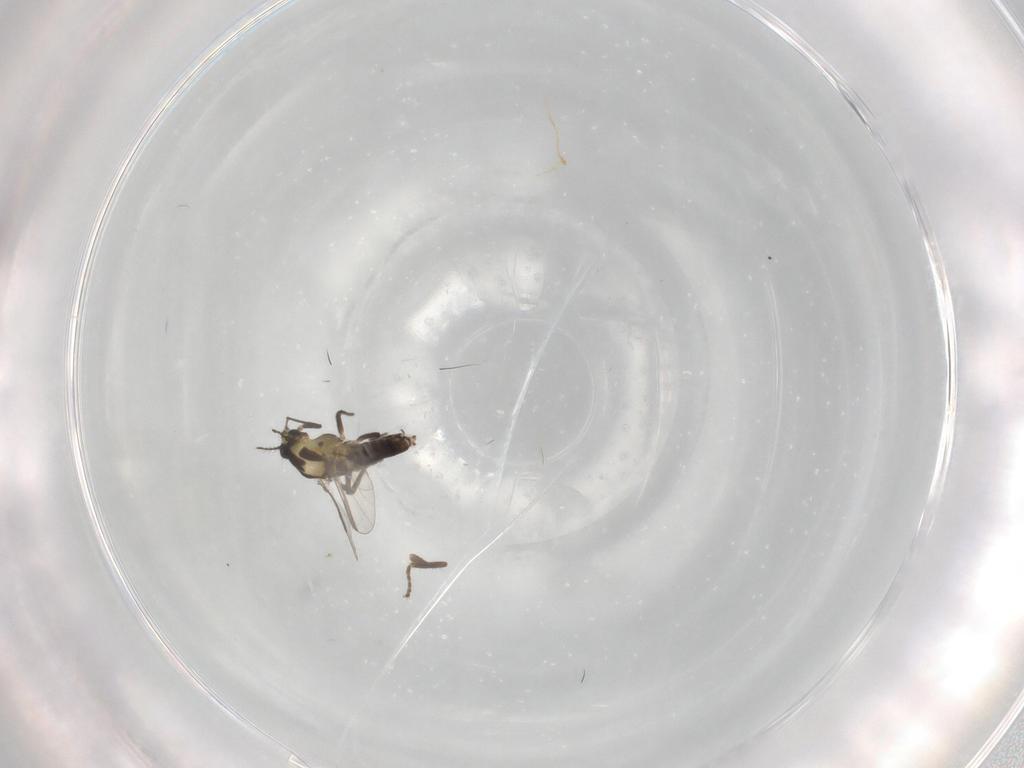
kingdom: Animalia
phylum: Arthropoda
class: Insecta
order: Diptera
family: Chironomidae
